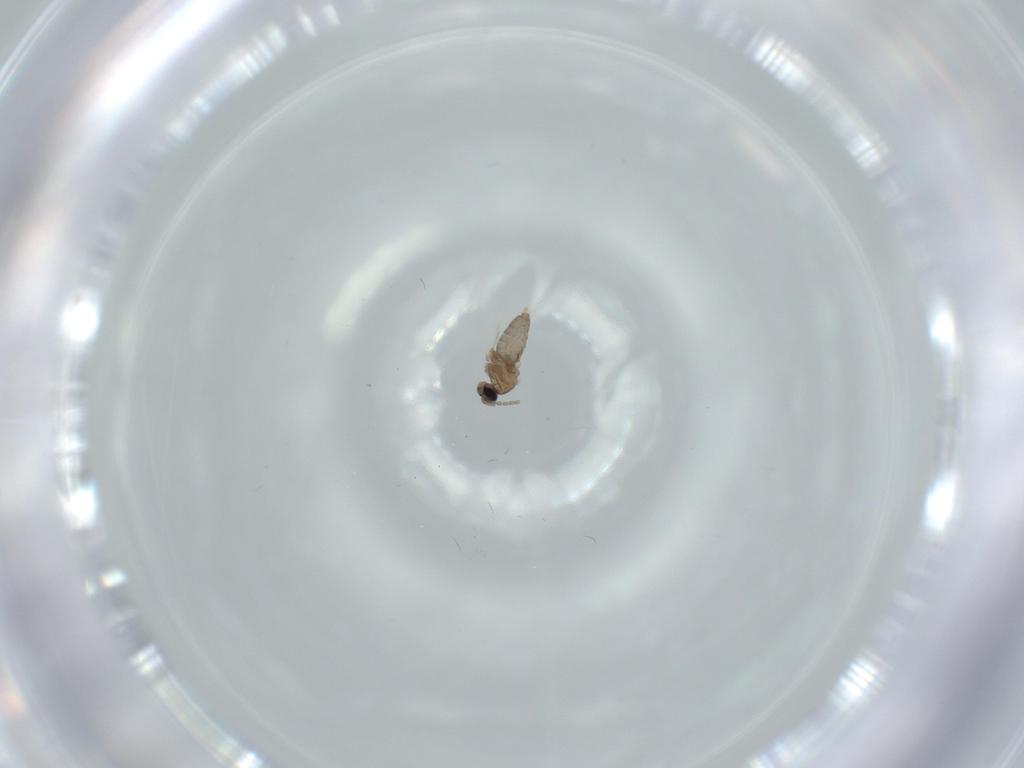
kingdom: Animalia
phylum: Arthropoda
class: Insecta
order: Diptera
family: Cecidomyiidae
